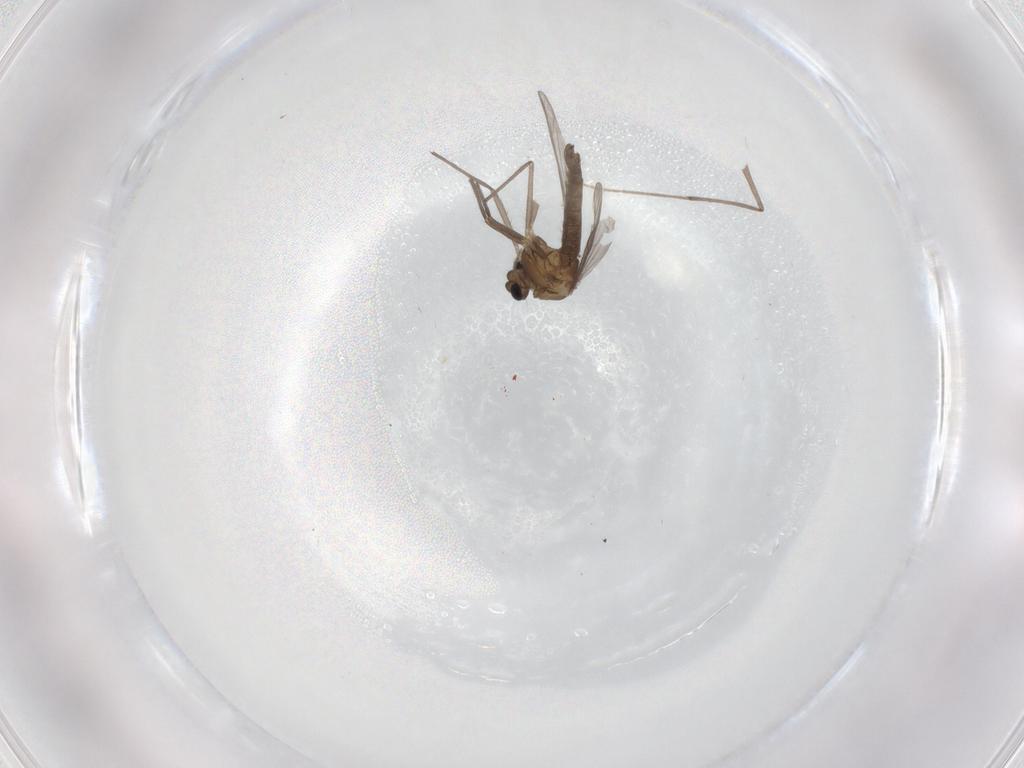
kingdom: Animalia
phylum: Arthropoda
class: Insecta
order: Diptera
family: Chironomidae
